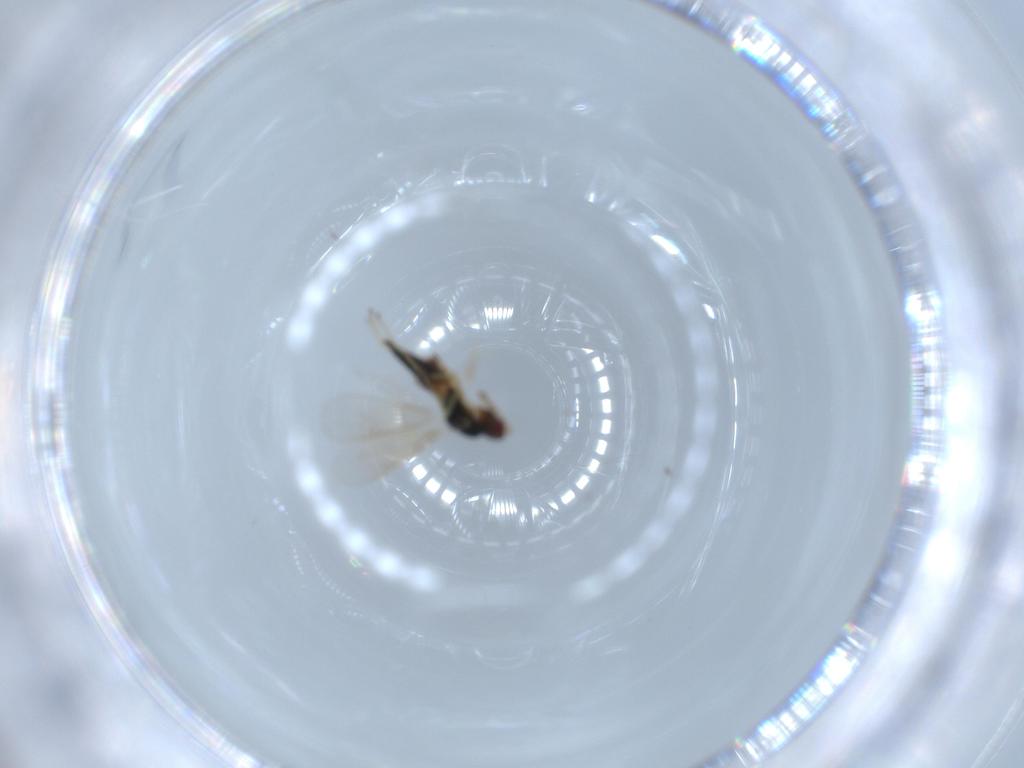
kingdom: Animalia
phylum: Arthropoda
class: Insecta
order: Hymenoptera
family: Eulophidae
